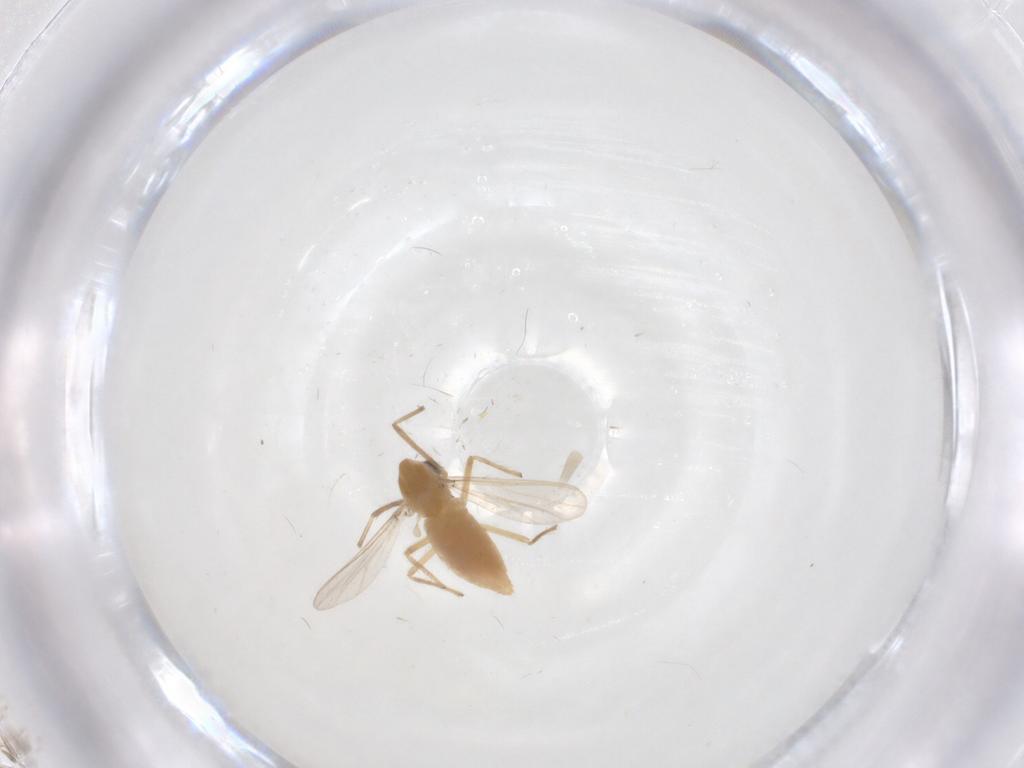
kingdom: Animalia
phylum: Arthropoda
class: Insecta
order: Diptera
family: Chironomidae
